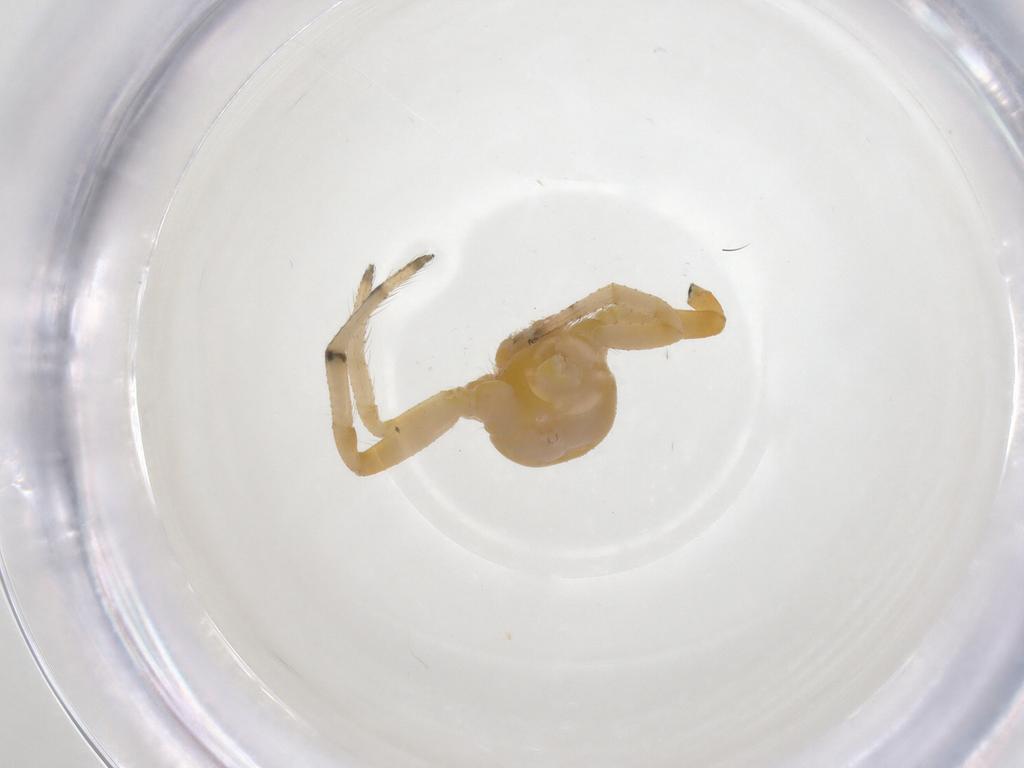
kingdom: Animalia
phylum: Arthropoda
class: Arachnida
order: Araneae
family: Araneidae
